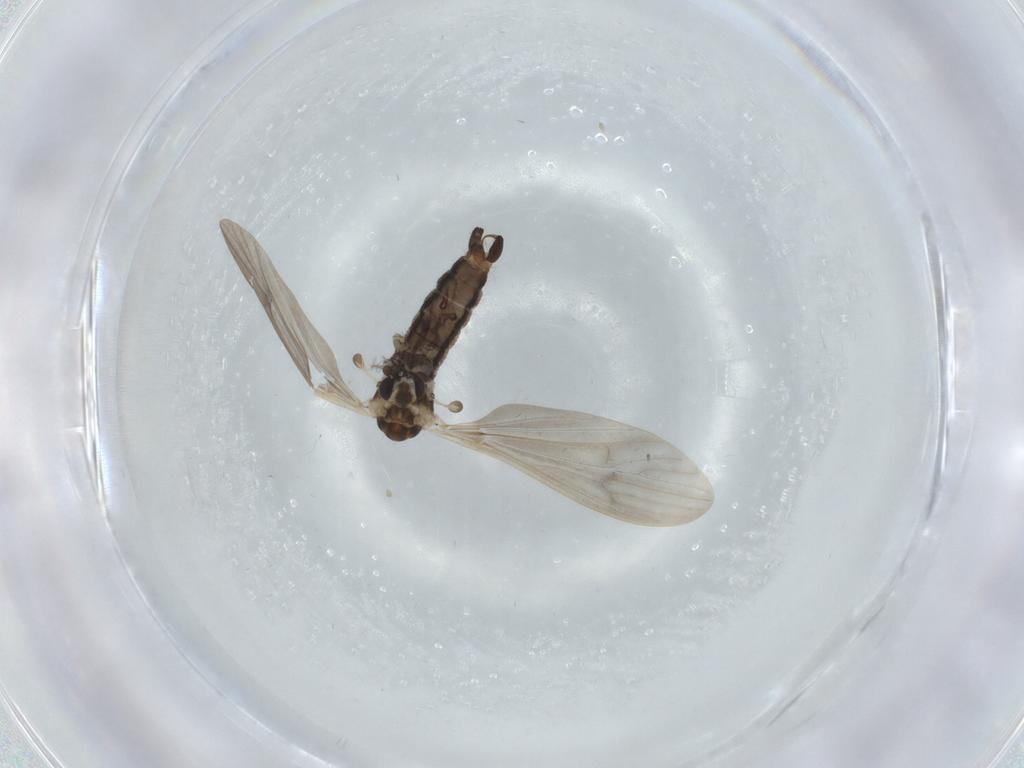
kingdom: Animalia
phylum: Arthropoda
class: Insecta
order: Diptera
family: Limoniidae
